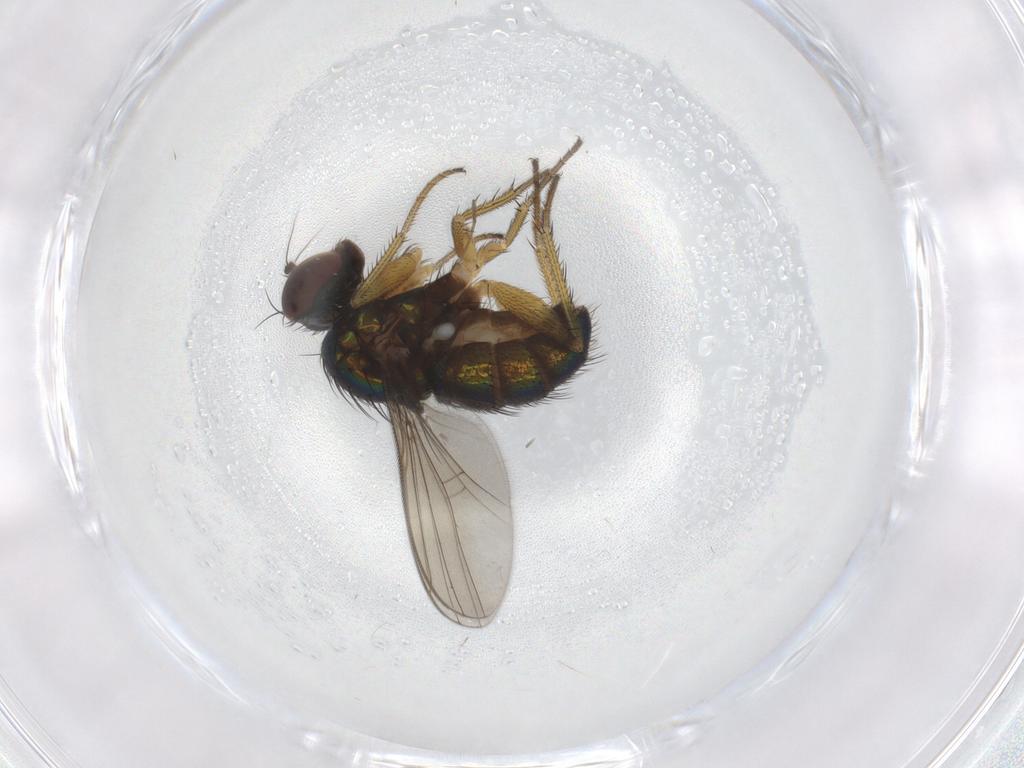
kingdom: Animalia
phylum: Arthropoda
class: Insecta
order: Diptera
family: Dolichopodidae
